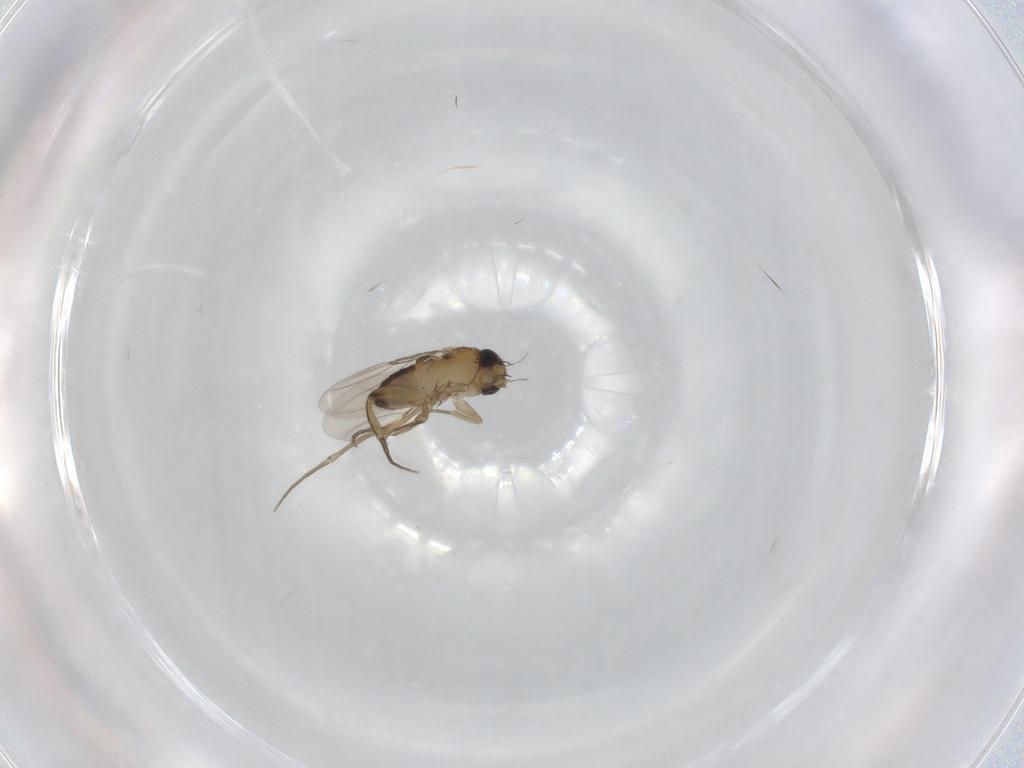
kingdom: Animalia
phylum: Arthropoda
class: Insecta
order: Diptera
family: Phoridae
